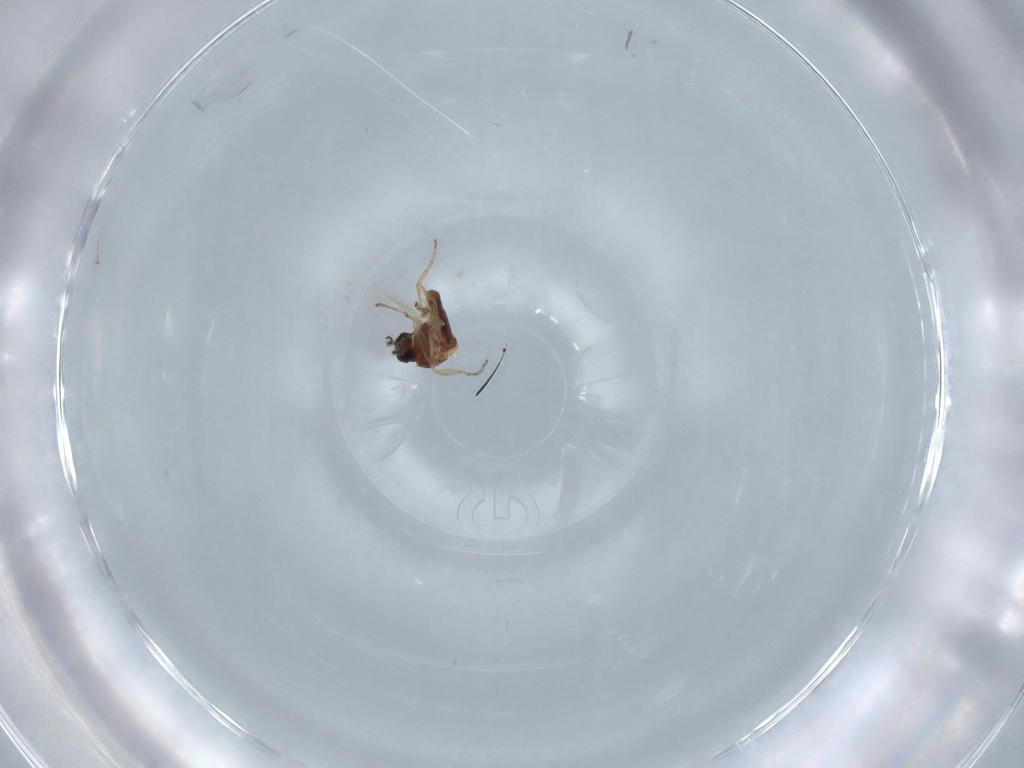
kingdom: Animalia
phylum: Arthropoda
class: Insecta
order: Diptera
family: Ceratopogonidae
